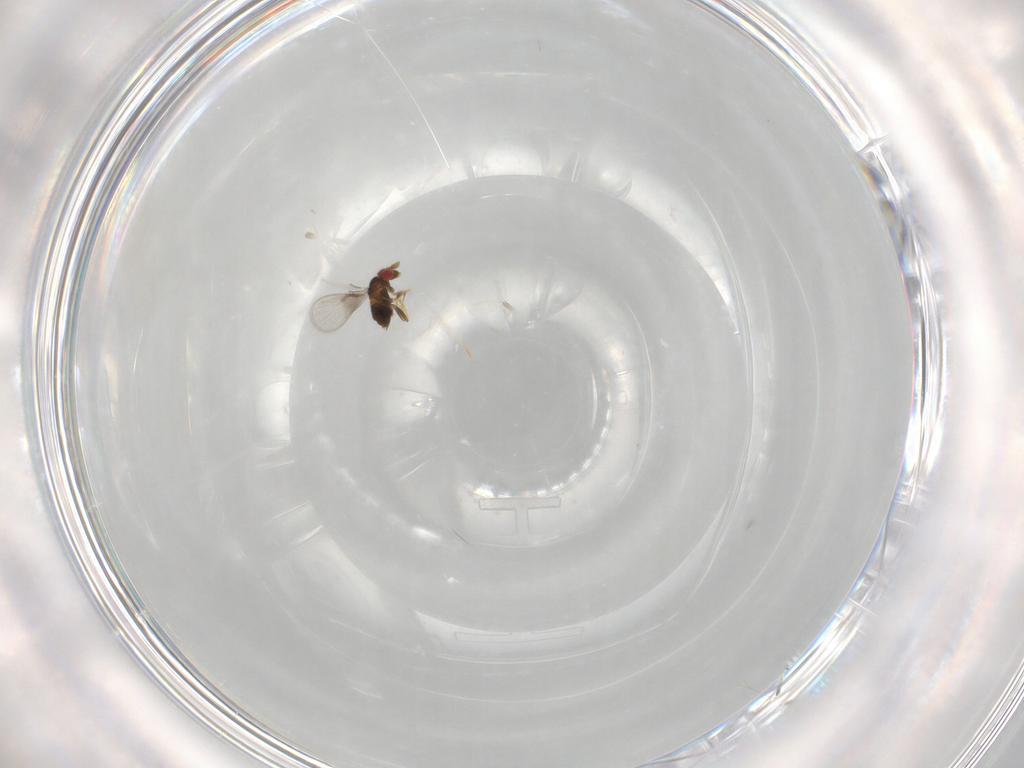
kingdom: Animalia
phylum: Arthropoda
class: Insecta
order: Hymenoptera
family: Trichogrammatidae
